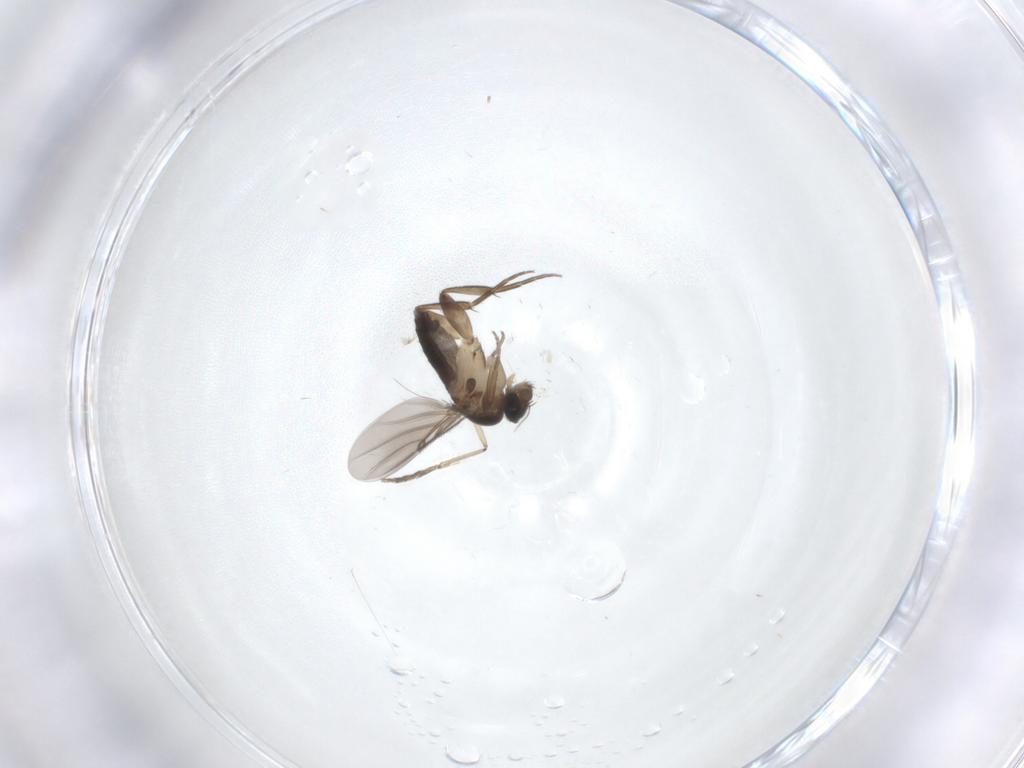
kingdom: Animalia
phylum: Arthropoda
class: Insecta
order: Diptera
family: Phoridae
